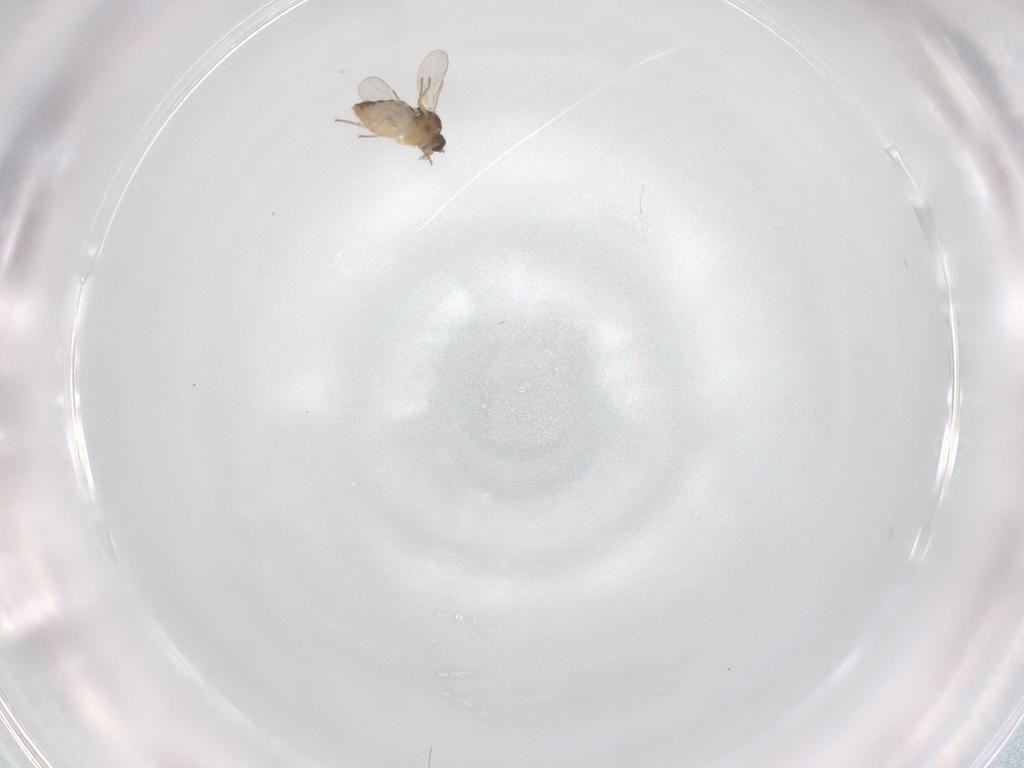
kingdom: Animalia
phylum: Arthropoda
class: Insecta
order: Diptera
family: Ceratopogonidae
